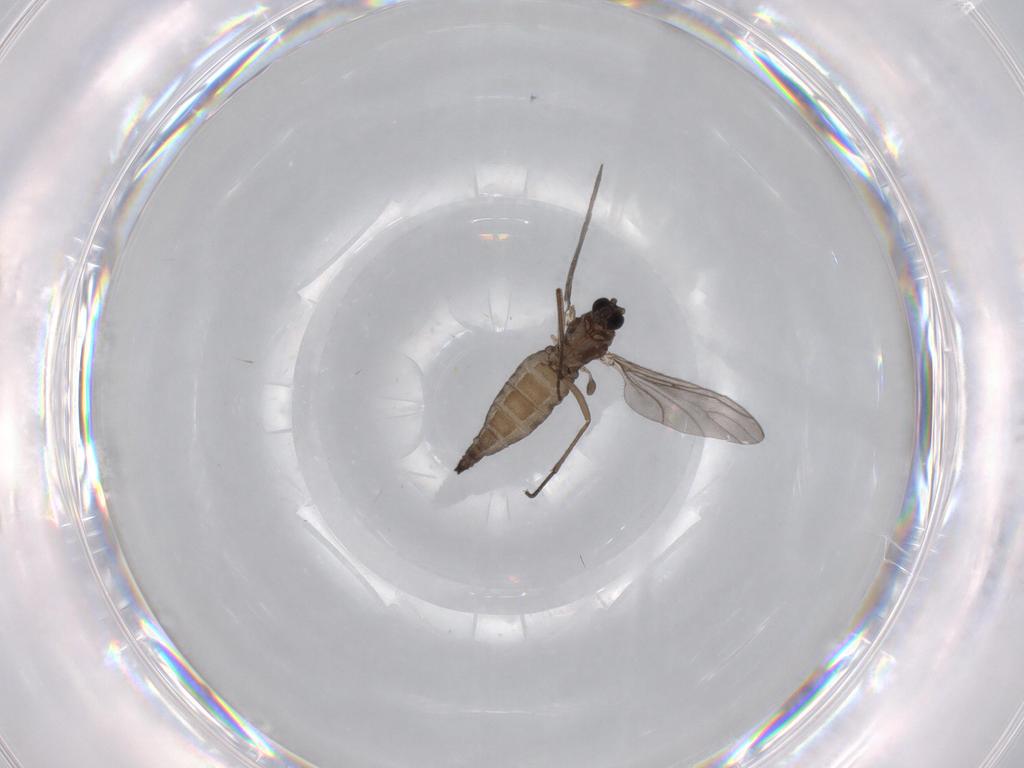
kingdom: Animalia
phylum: Arthropoda
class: Insecta
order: Diptera
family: Sciaridae
